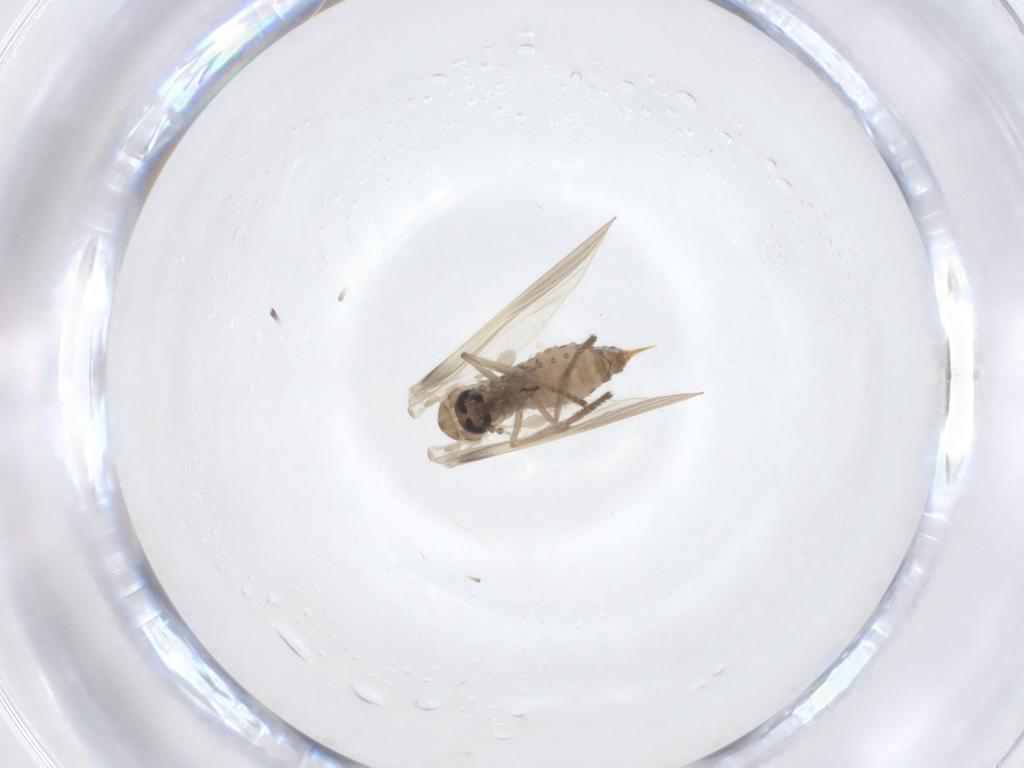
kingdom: Animalia
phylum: Arthropoda
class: Insecta
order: Diptera
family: Psychodidae
